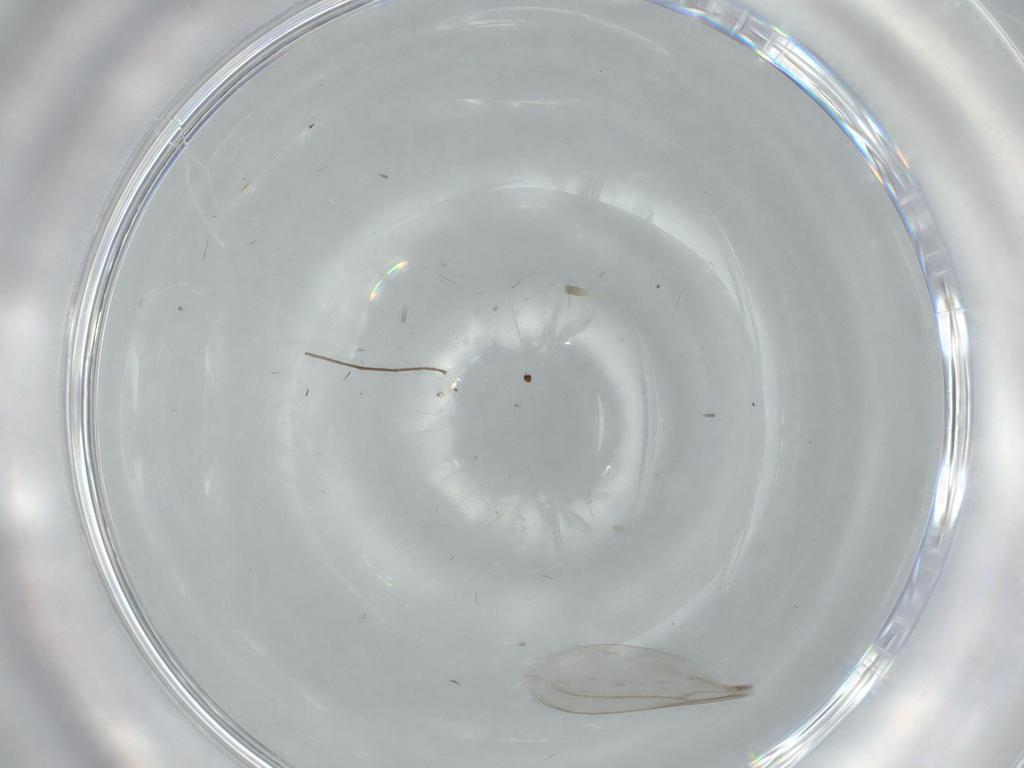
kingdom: Animalia
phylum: Arthropoda
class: Insecta
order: Diptera
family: Chironomidae
